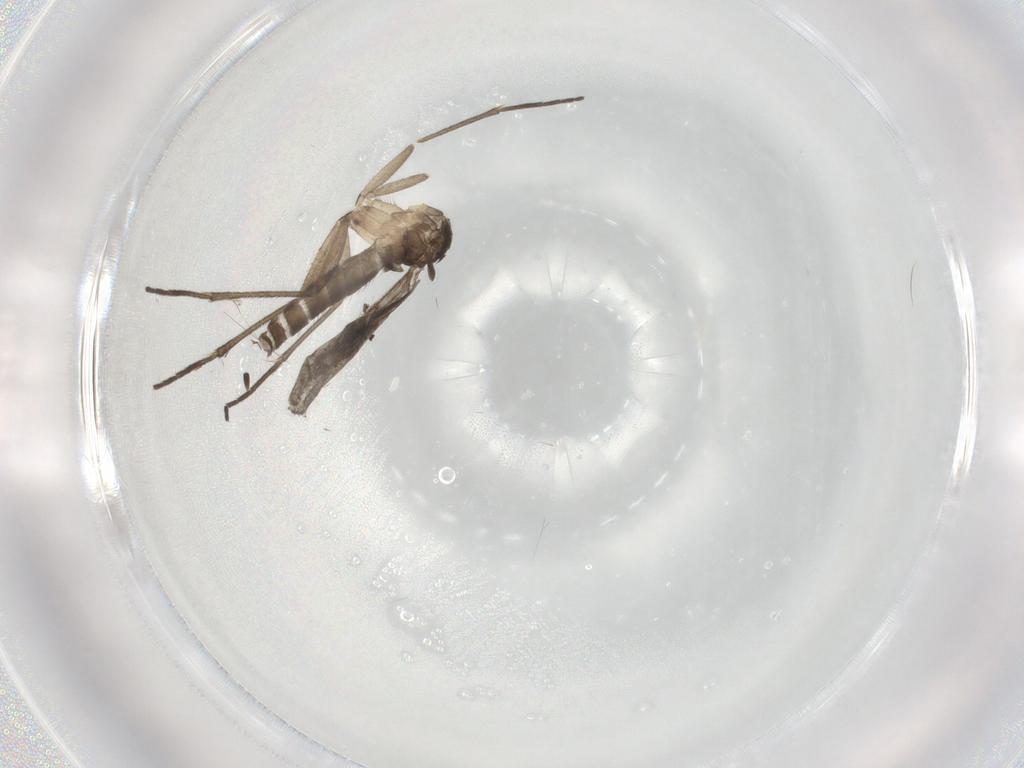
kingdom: Animalia
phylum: Arthropoda
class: Insecta
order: Diptera
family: Sciaridae
